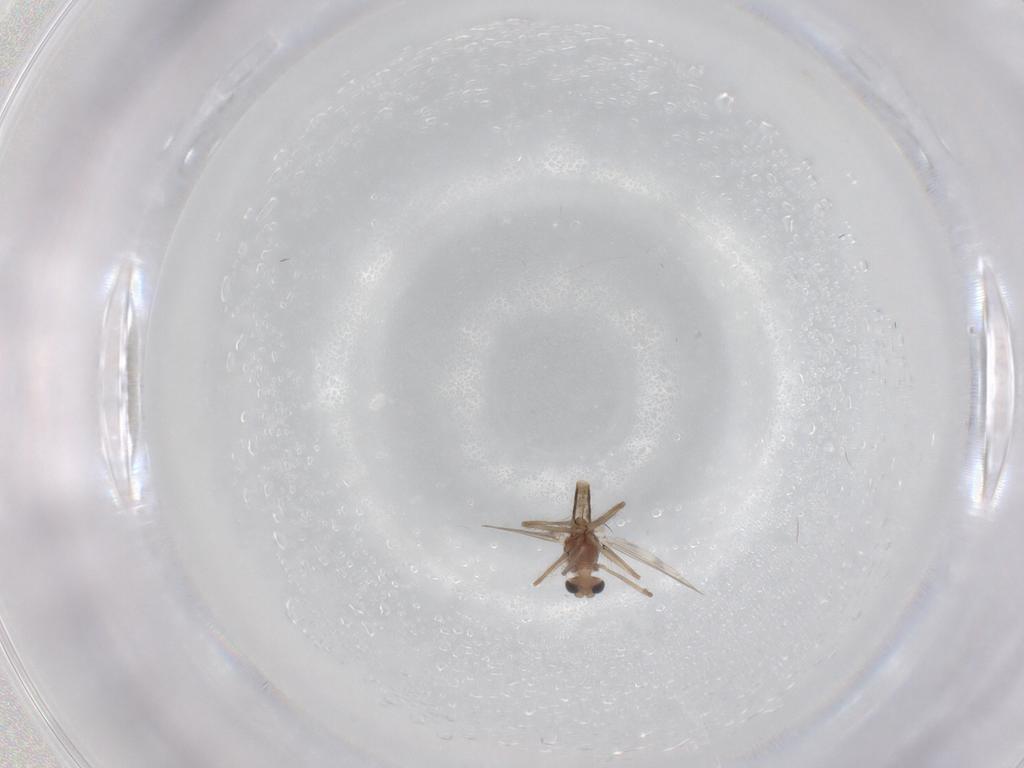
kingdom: Animalia
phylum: Arthropoda
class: Insecta
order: Diptera
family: Chironomidae
